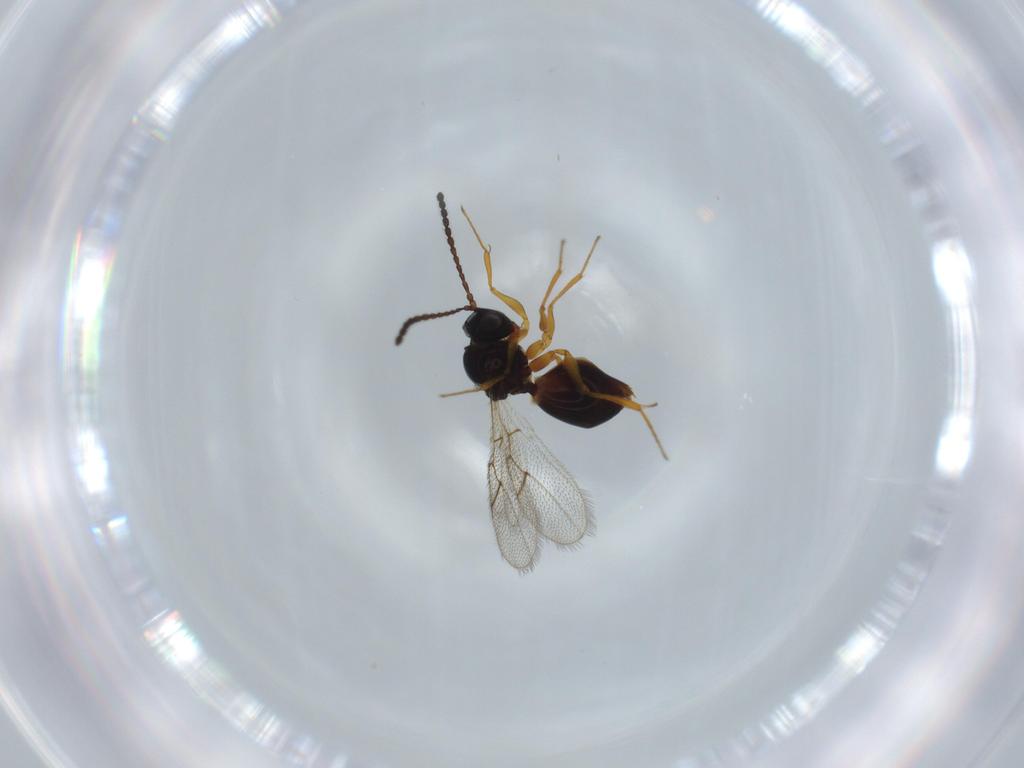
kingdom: Animalia
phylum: Arthropoda
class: Insecta
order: Hymenoptera
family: Figitidae
